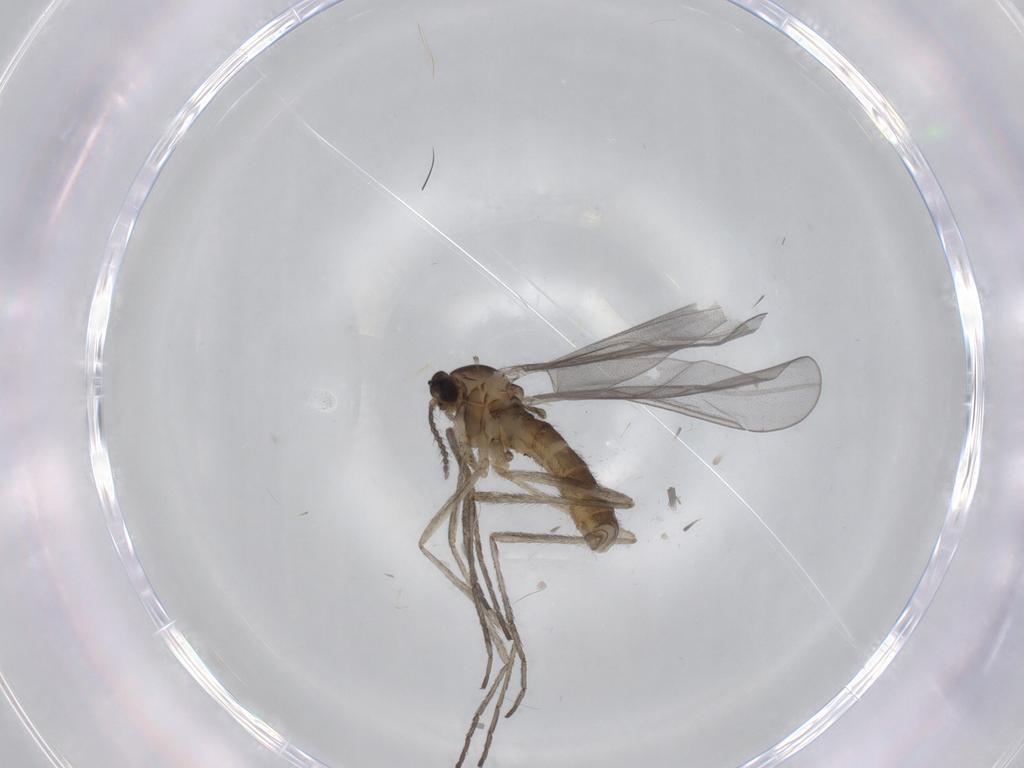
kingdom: Animalia
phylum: Arthropoda
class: Insecta
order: Diptera
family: Cecidomyiidae
